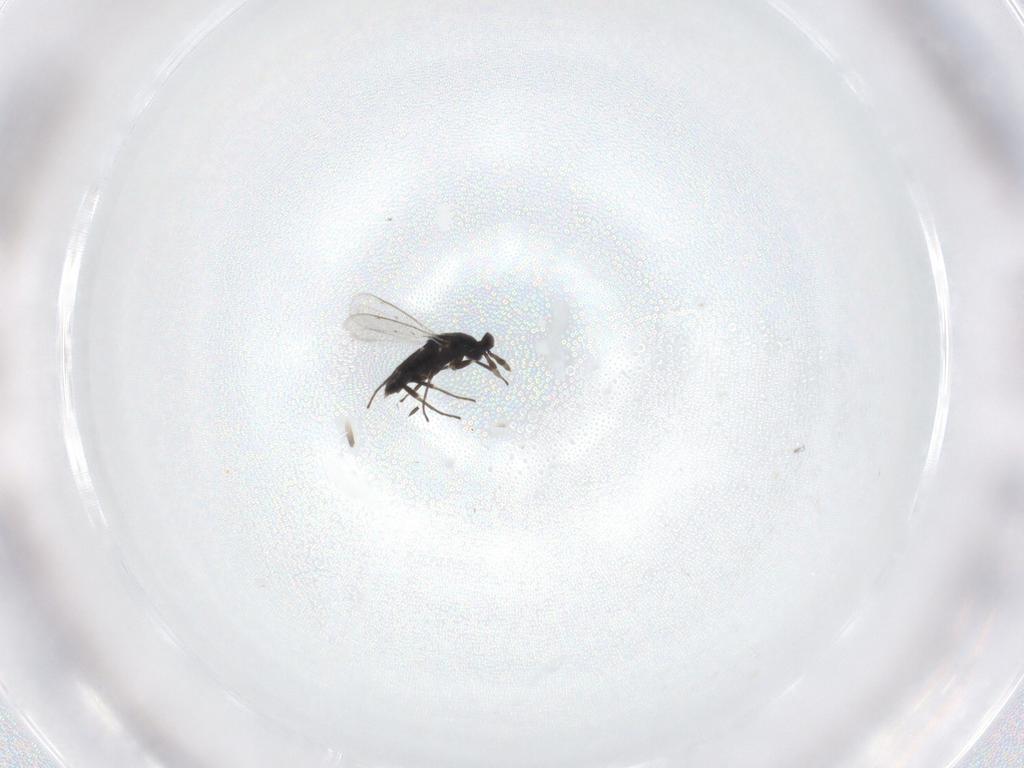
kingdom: Animalia
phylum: Arthropoda
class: Insecta
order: Hymenoptera
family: Eulophidae
